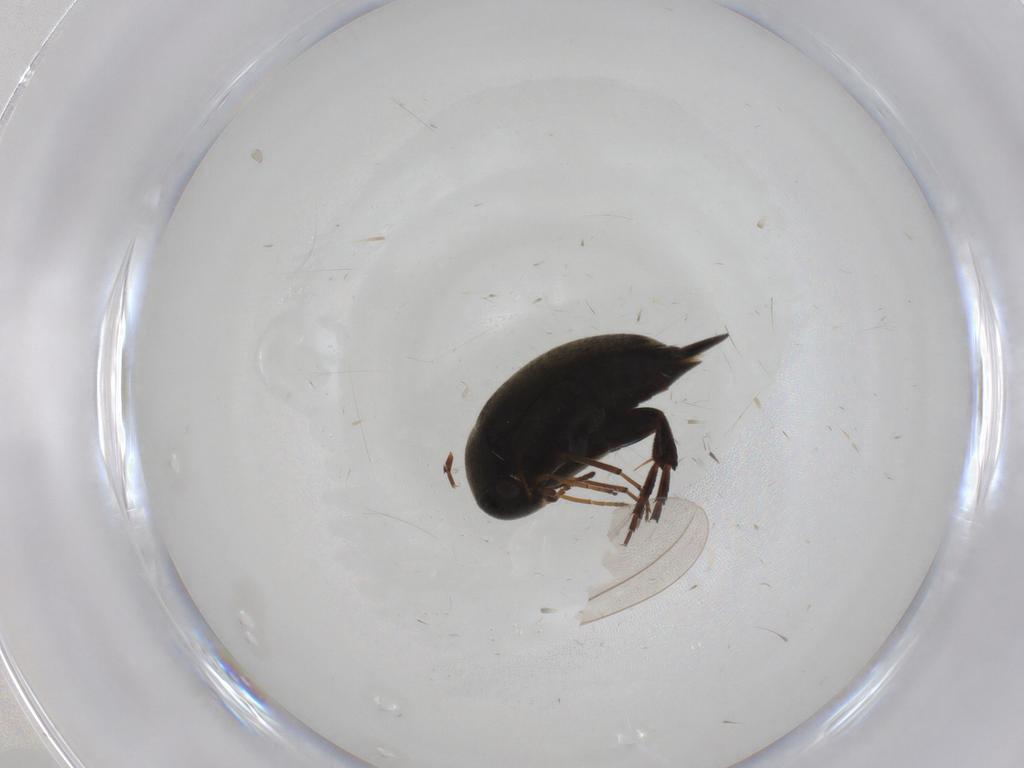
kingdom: Animalia
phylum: Arthropoda
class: Insecta
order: Coleoptera
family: Mordellidae
